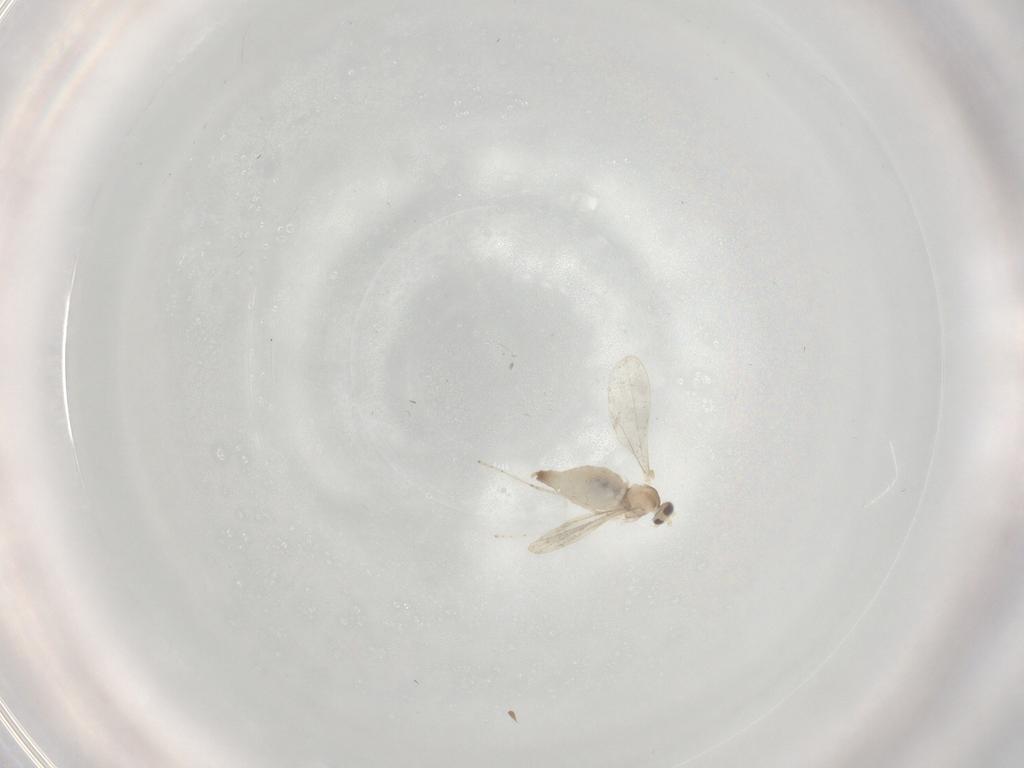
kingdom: Animalia
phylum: Arthropoda
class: Insecta
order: Diptera
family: Cecidomyiidae
